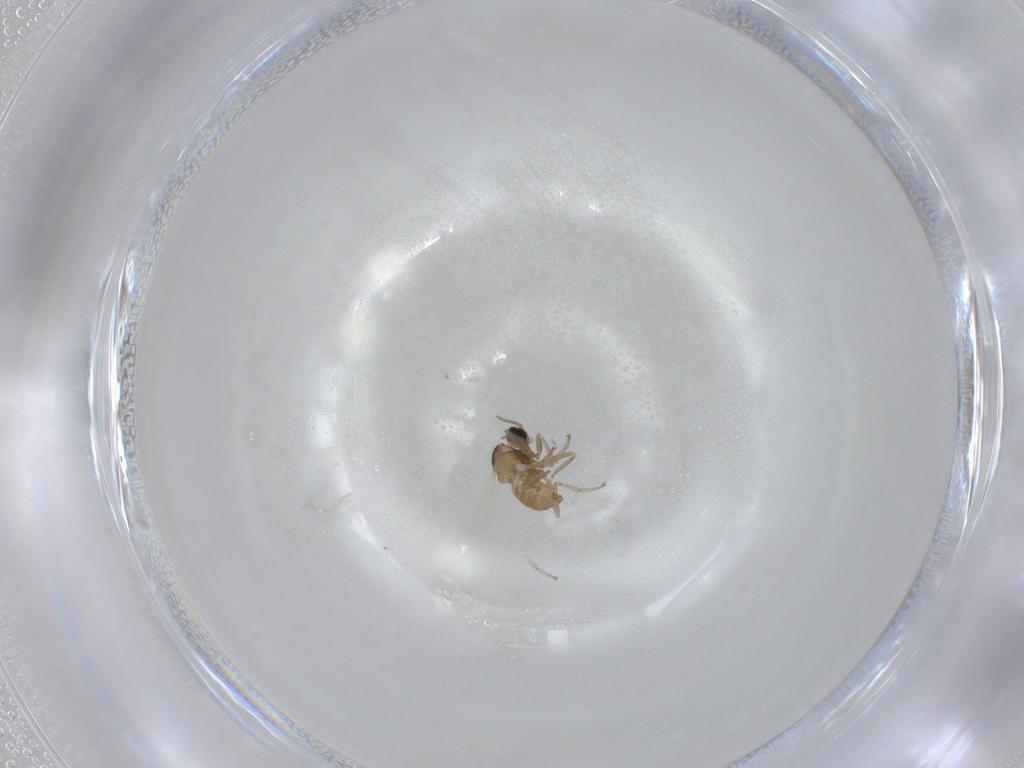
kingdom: Animalia
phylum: Arthropoda
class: Insecta
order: Diptera
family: Cecidomyiidae
